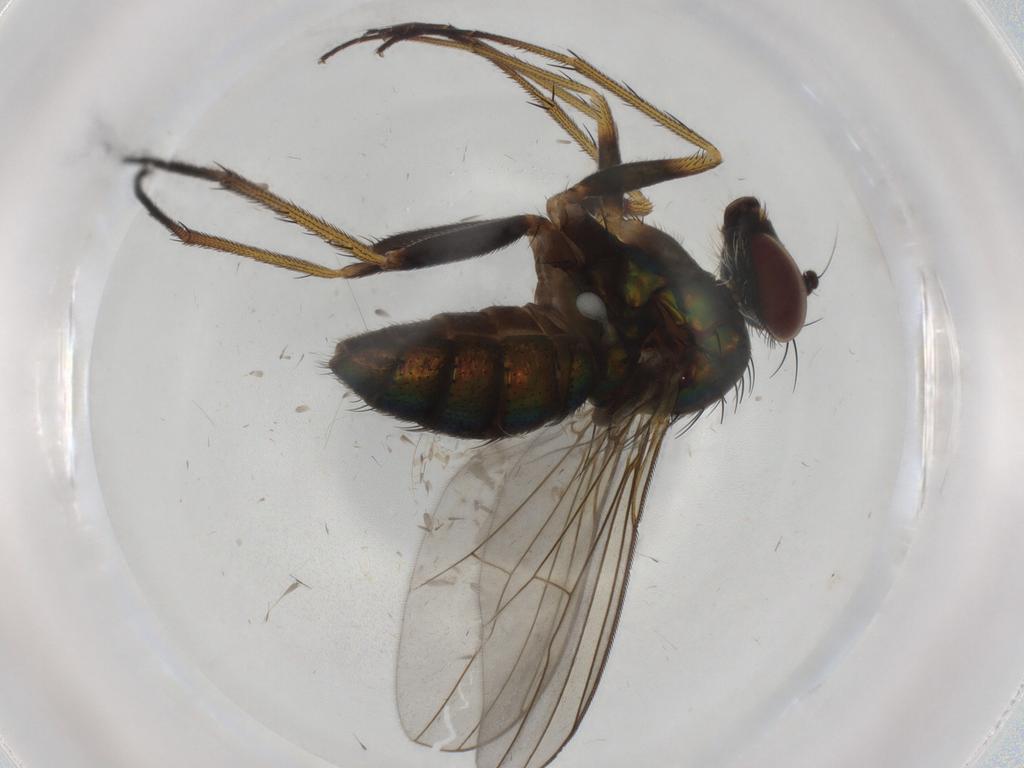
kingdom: Animalia
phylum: Arthropoda
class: Insecta
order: Diptera
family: Dolichopodidae
